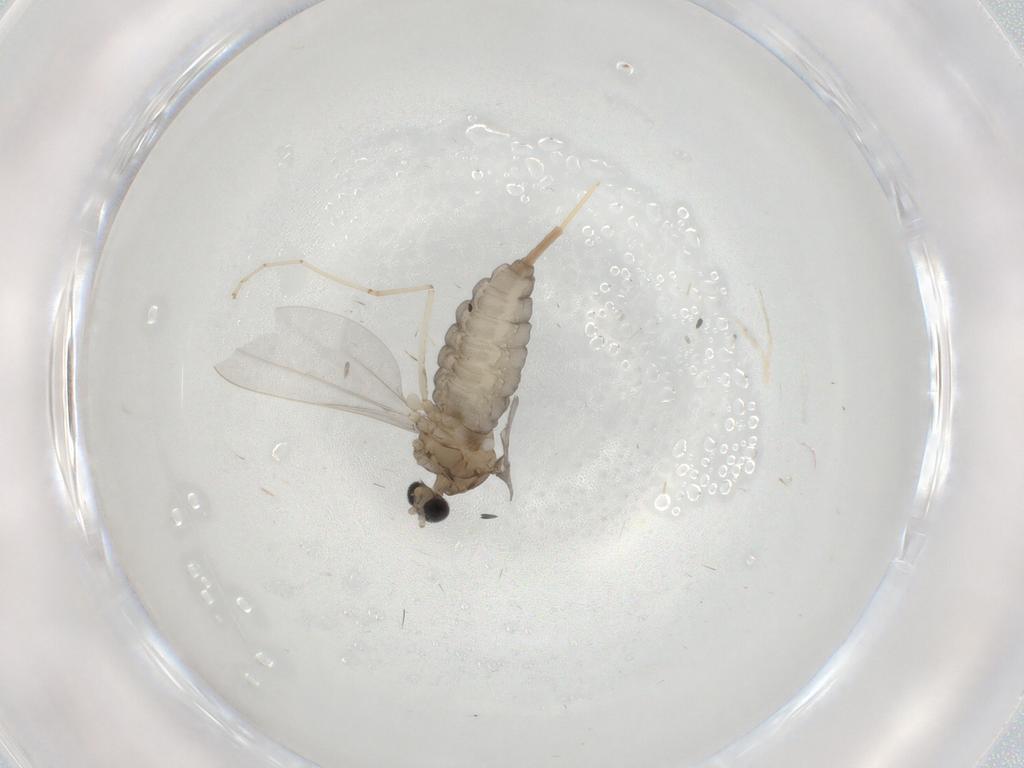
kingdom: Animalia
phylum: Arthropoda
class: Insecta
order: Diptera
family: Cecidomyiidae
